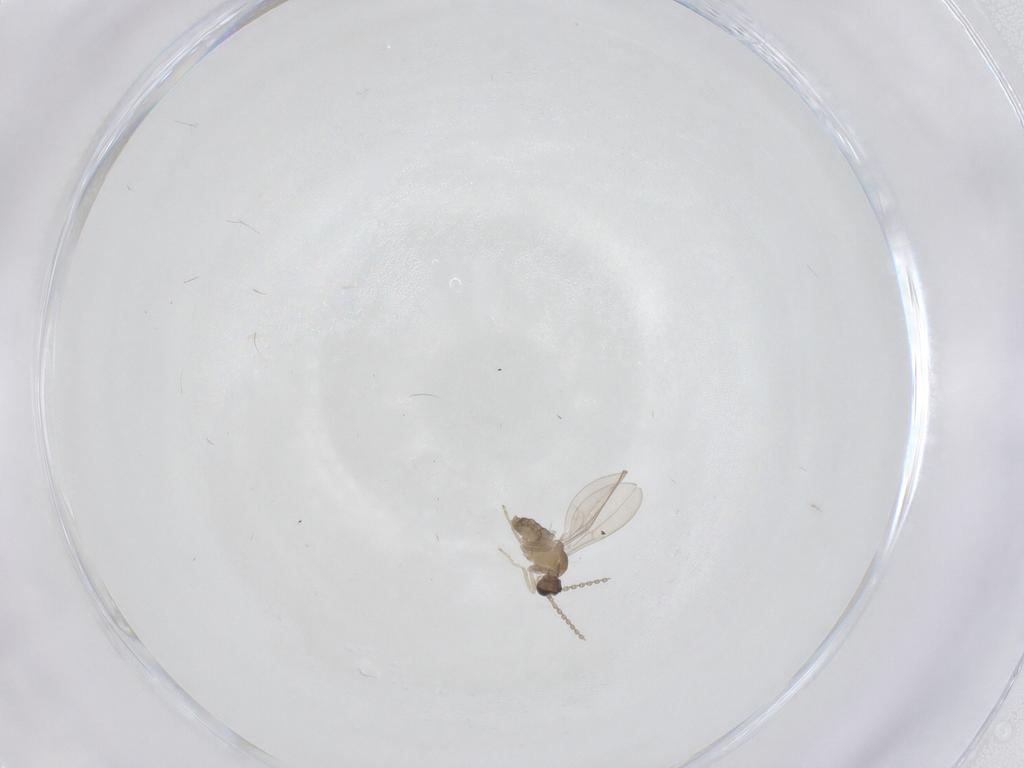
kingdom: Animalia
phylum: Arthropoda
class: Insecta
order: Diptera
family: Cecidomyiidae
